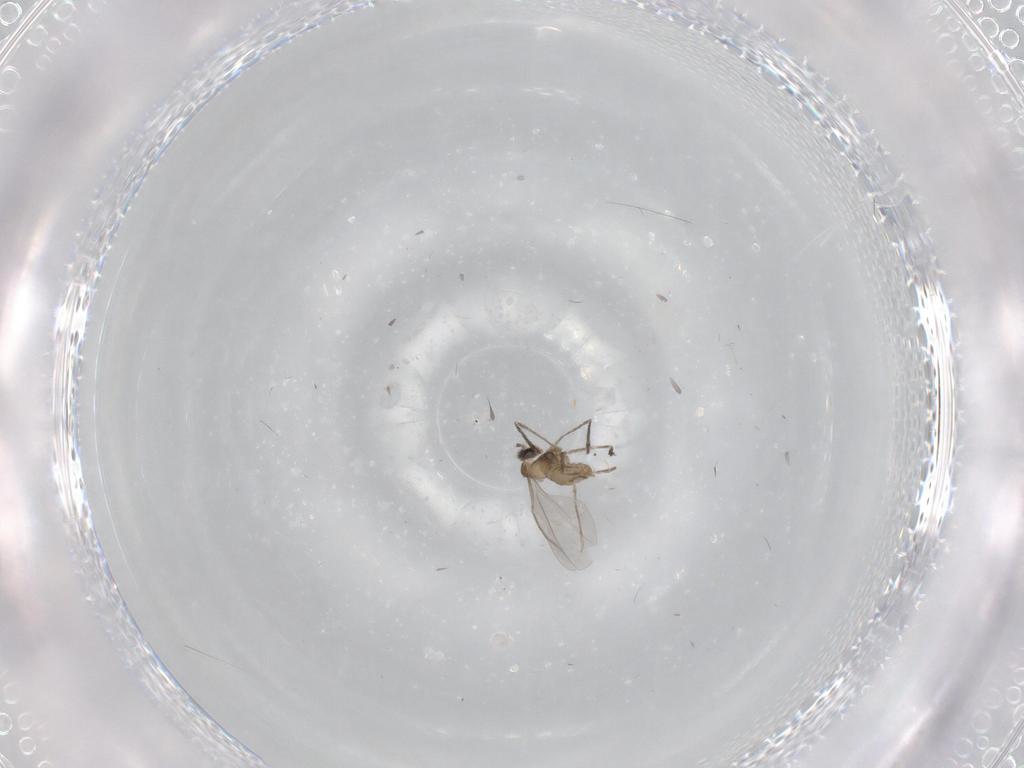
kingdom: Animalia
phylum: Arthropoda
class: Insecta
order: Diptera
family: Cecidomyiidae
